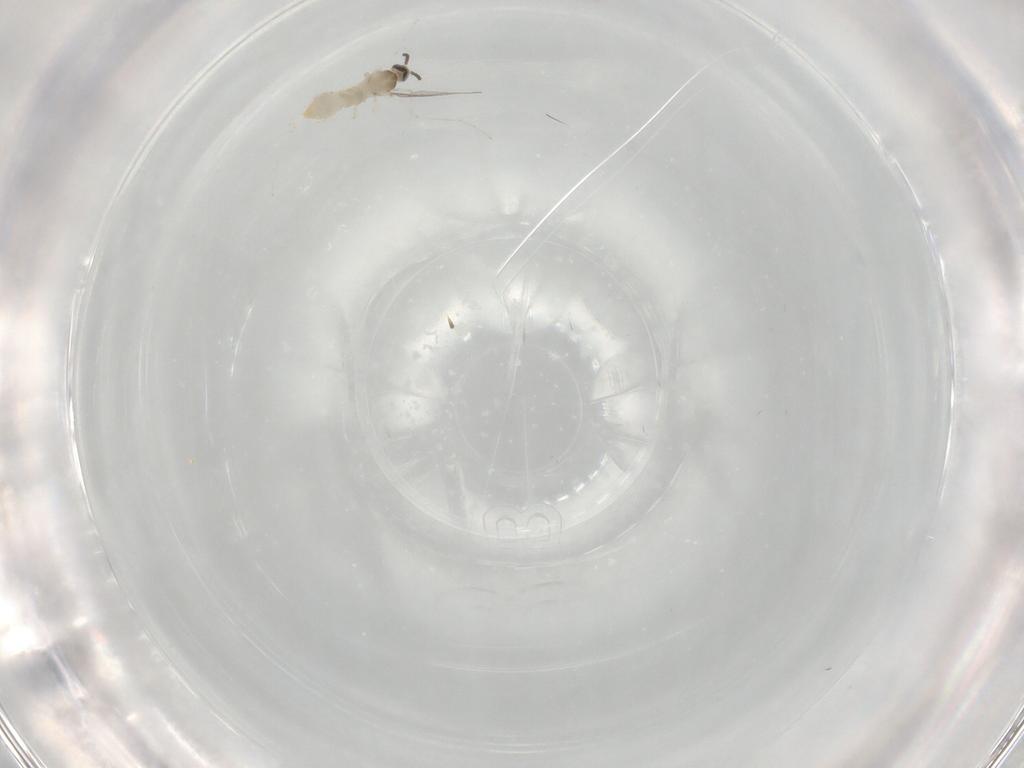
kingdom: Animalia
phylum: Arthropoda
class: Insecta
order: Diptera
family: Cecidomyiidae
